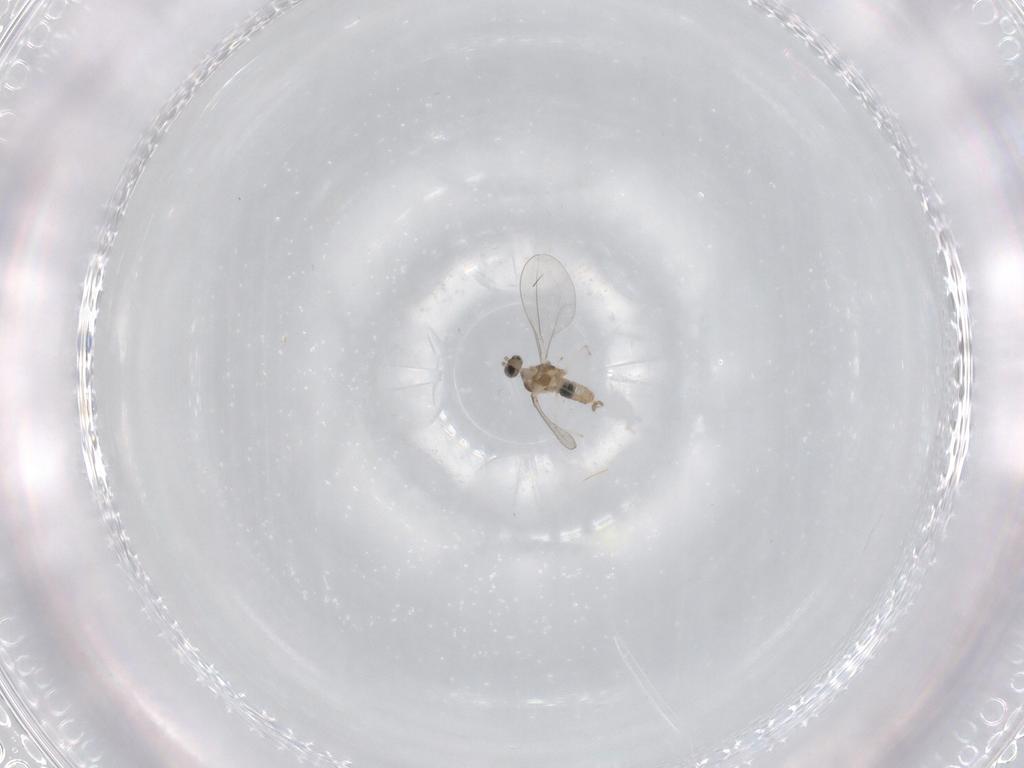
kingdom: Animalia
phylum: Arthropoda
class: Insecta
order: Diptera
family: Cecidomyiidae
